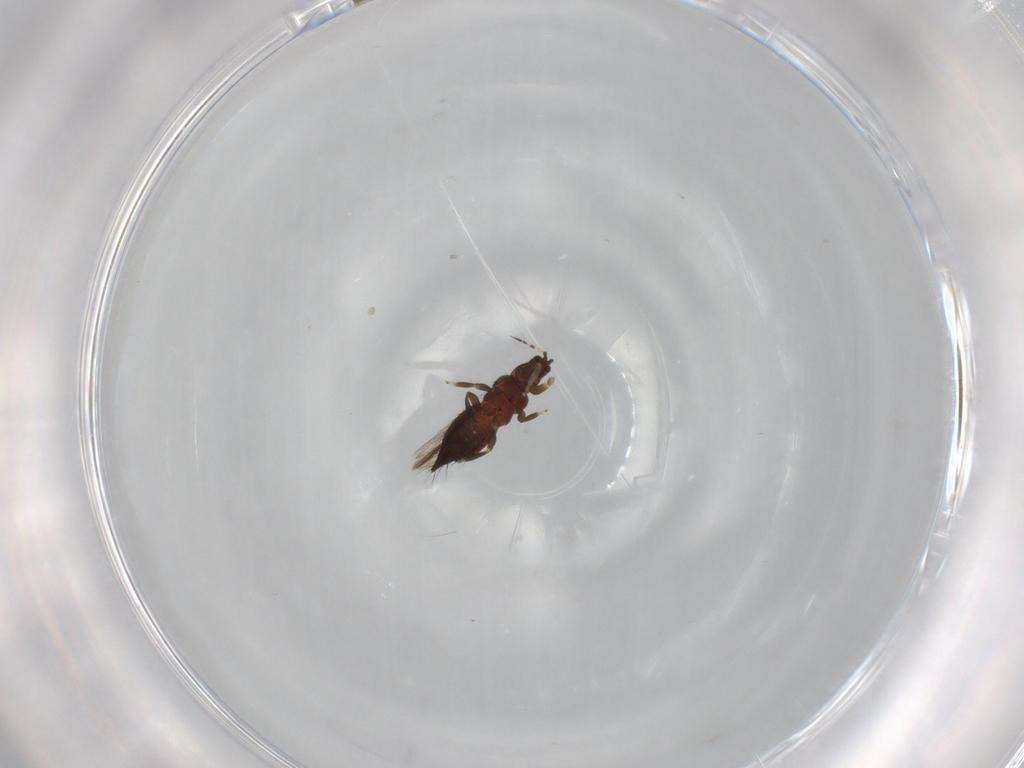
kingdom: Animalia
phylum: Arthropoda
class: Insecta
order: Thysanoptera
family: Thripidae
